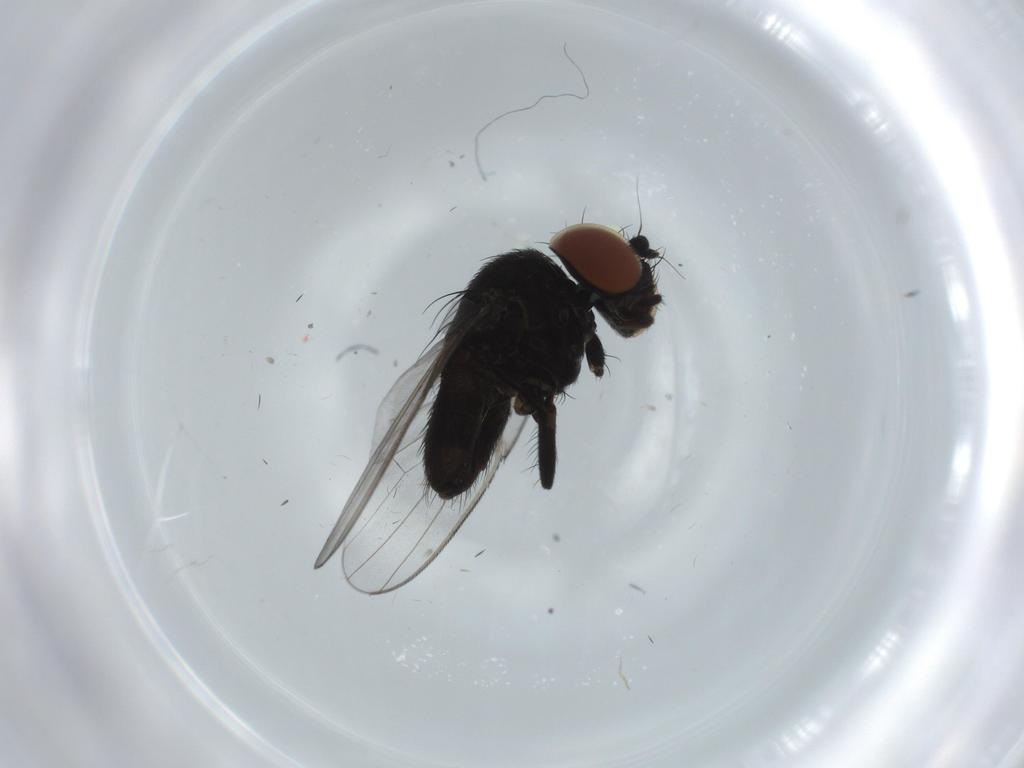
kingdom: Animalia
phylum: Arthropoda
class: Insecta
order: Diptera
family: Milichiidae
